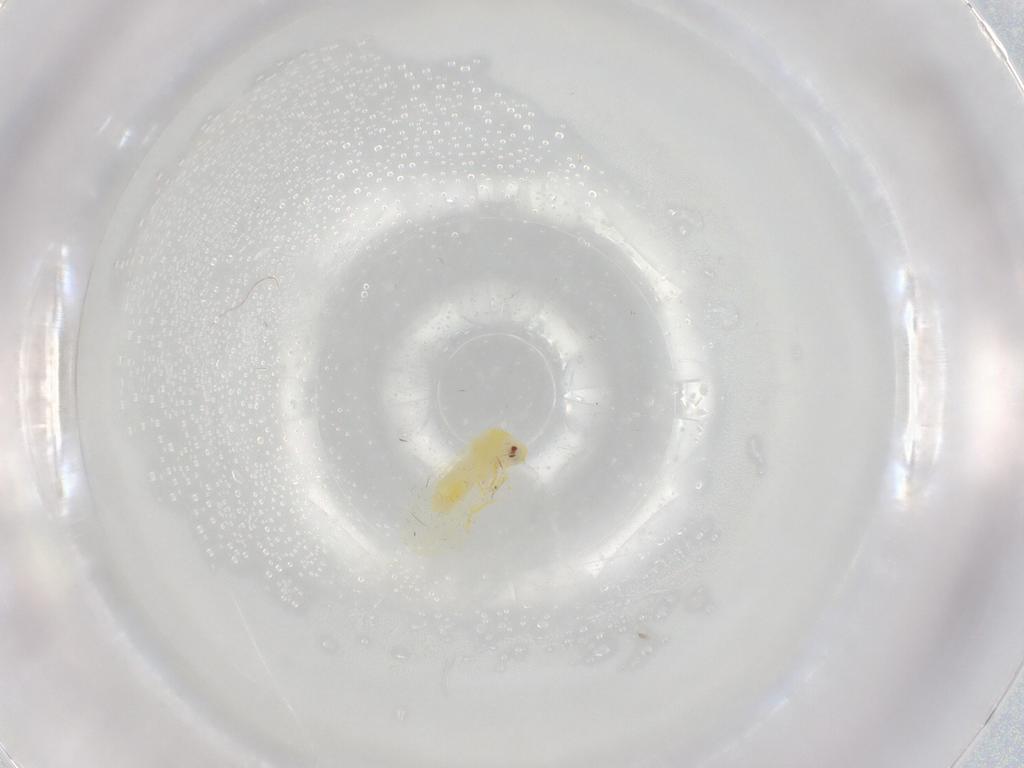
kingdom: Animalia
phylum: Arthropoda
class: Insecta
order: Hemiptera
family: Aleyrodidae
